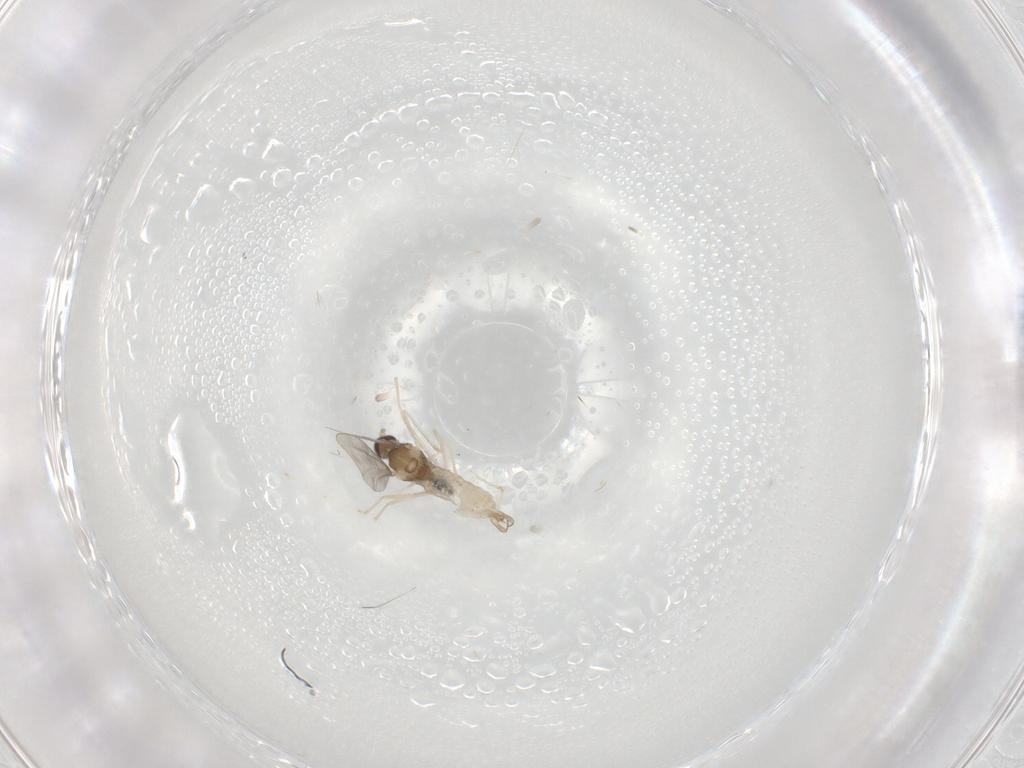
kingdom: Animalia
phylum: Arthropoda
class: Insecta
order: Diptera
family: Cecidomyiidae
